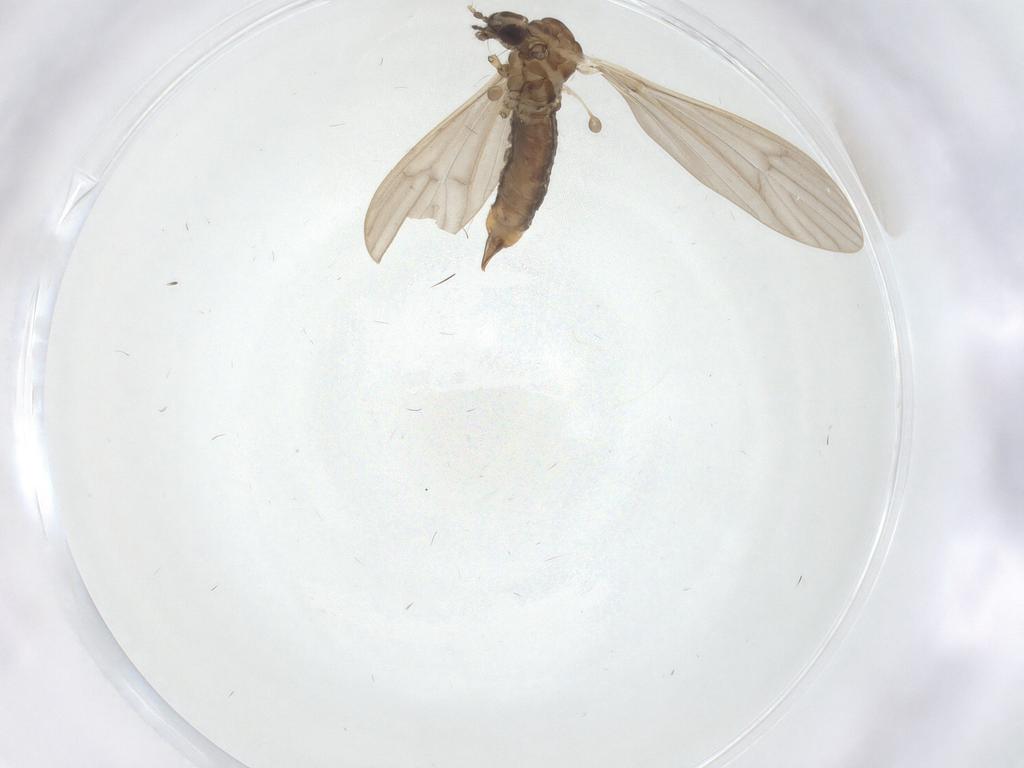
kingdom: Animalia
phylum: Arthropoda
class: Insecta
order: Diptera
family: Limoniidae
